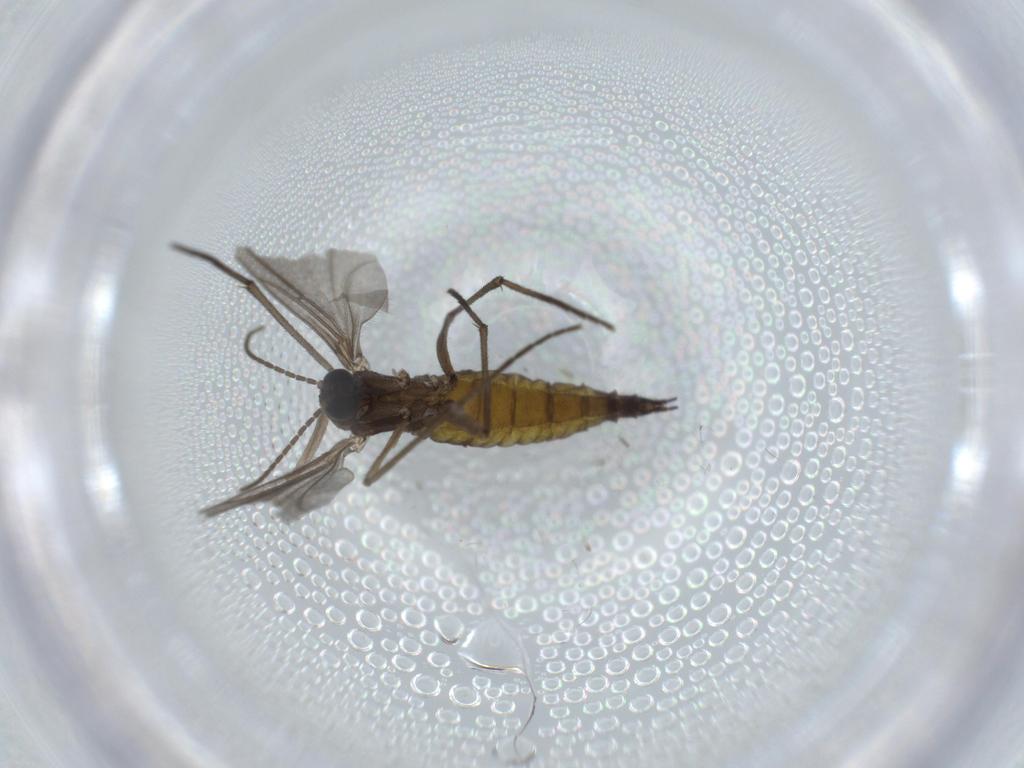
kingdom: Animalia
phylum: Arthropoda
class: Insecta
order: Diptera
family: Sciaridae
